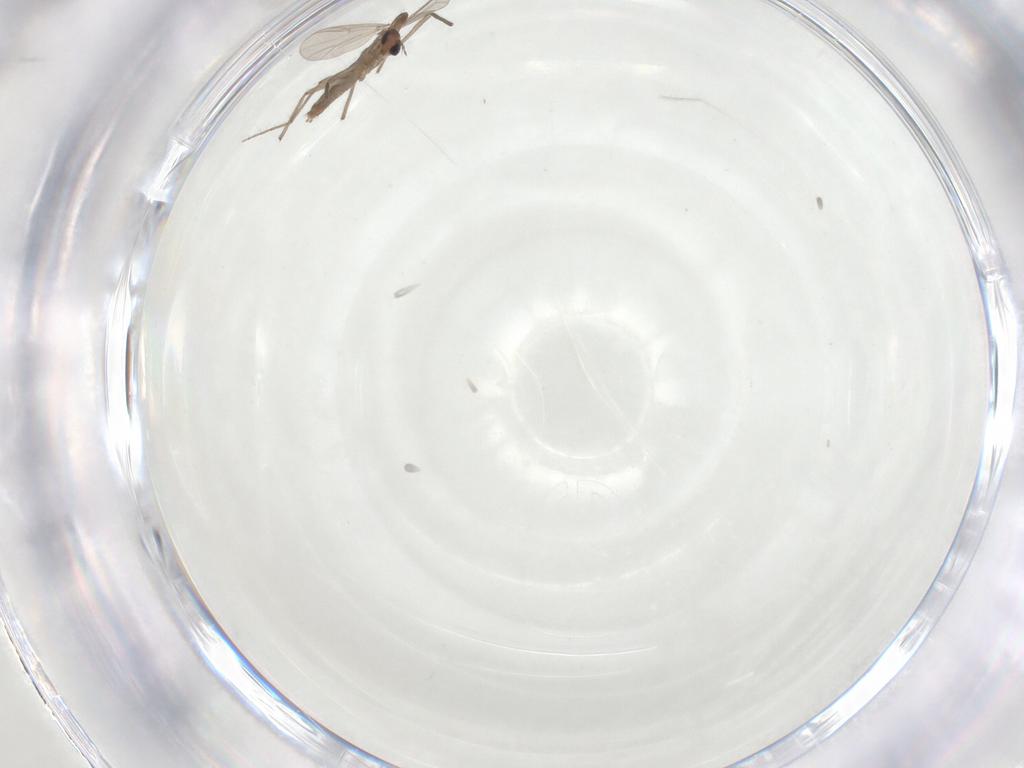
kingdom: Animalia
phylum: Arthropoda
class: Insecta
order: Diptera
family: Chironomidae
